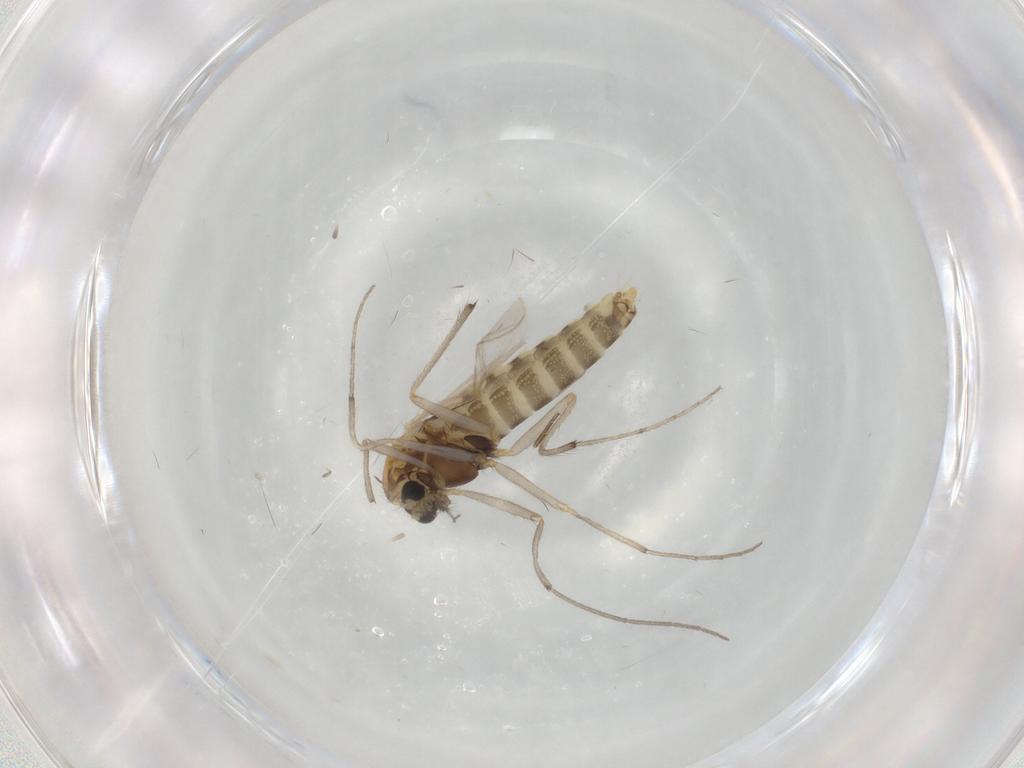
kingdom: Animalia
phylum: Arthropoda
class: Insecta
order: Diptera
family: Chironomidae
